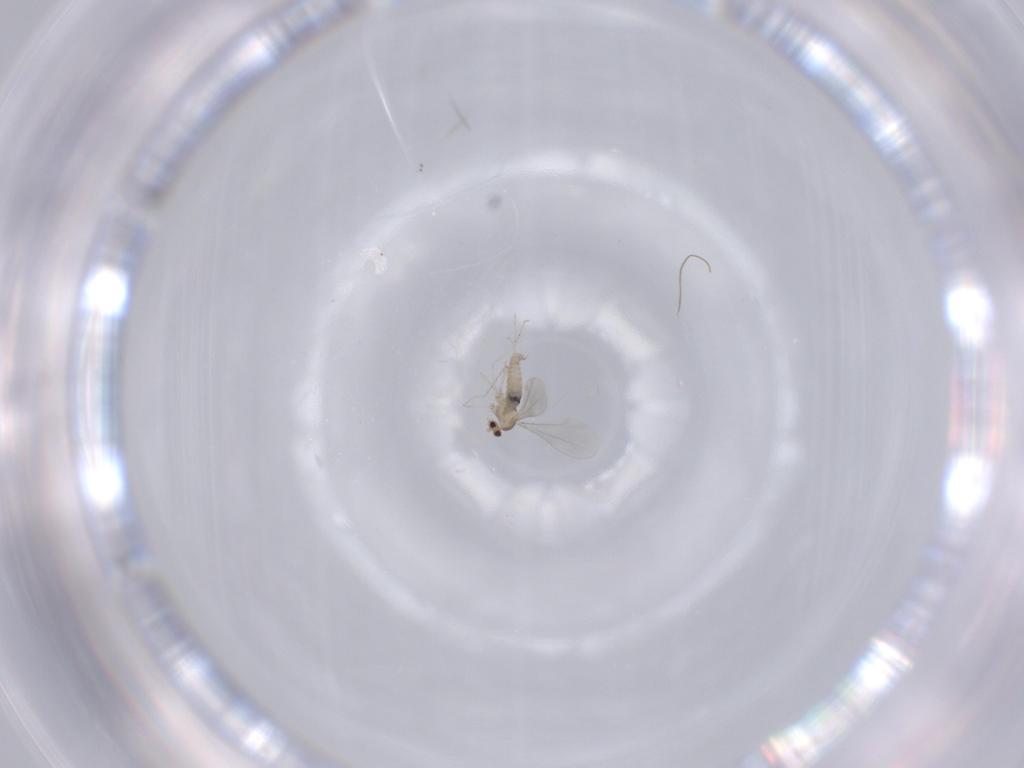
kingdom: Animalia
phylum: Arthropoda
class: Insecta
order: Diptera
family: Cecidomyiidae
